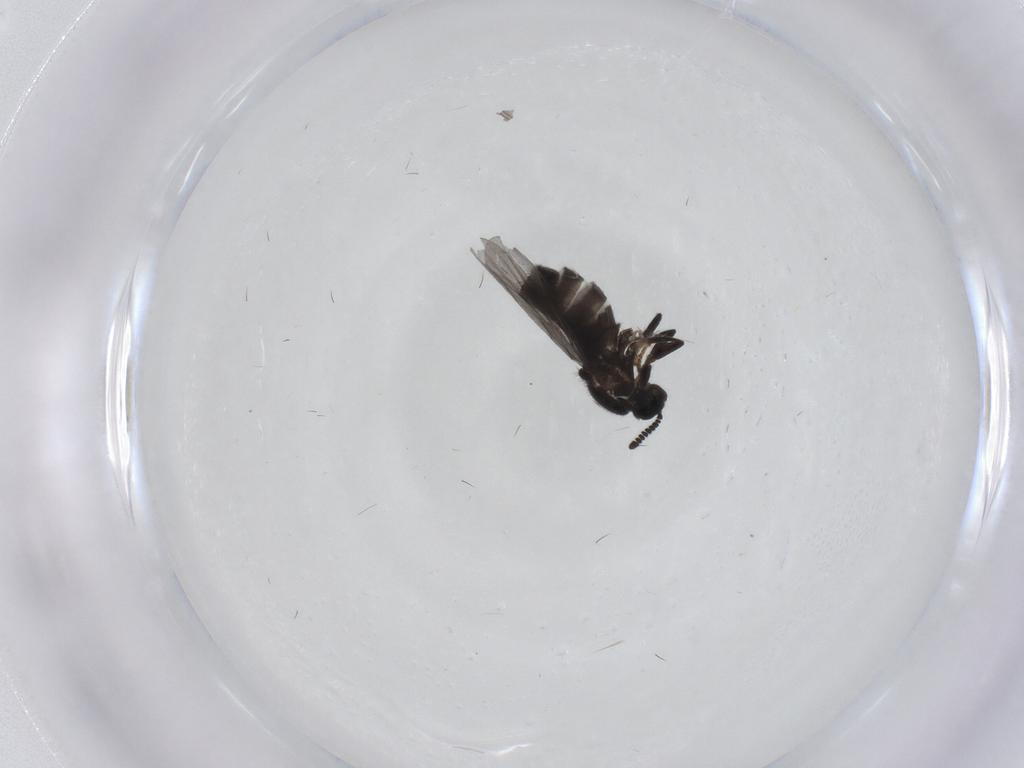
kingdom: Animalia
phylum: Arthropoda
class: Insecta
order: Diptera
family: Scatopsidae
